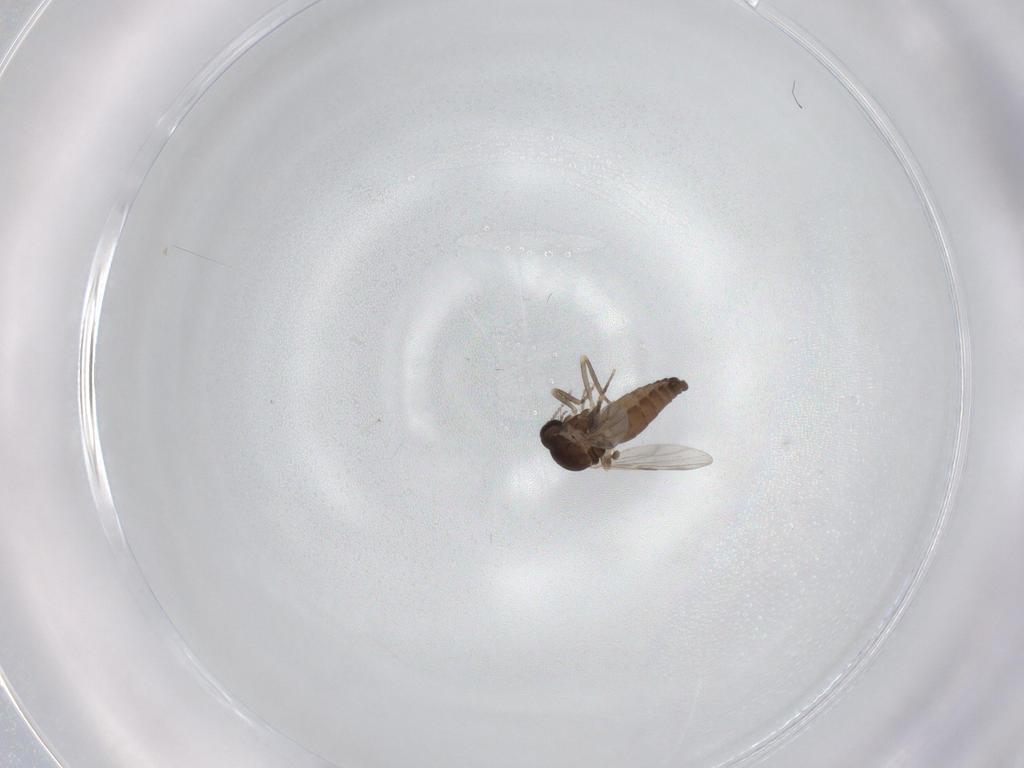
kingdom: Animalia
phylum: Arthropoda
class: Insecta
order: Diptera
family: Ceratopogonidae
